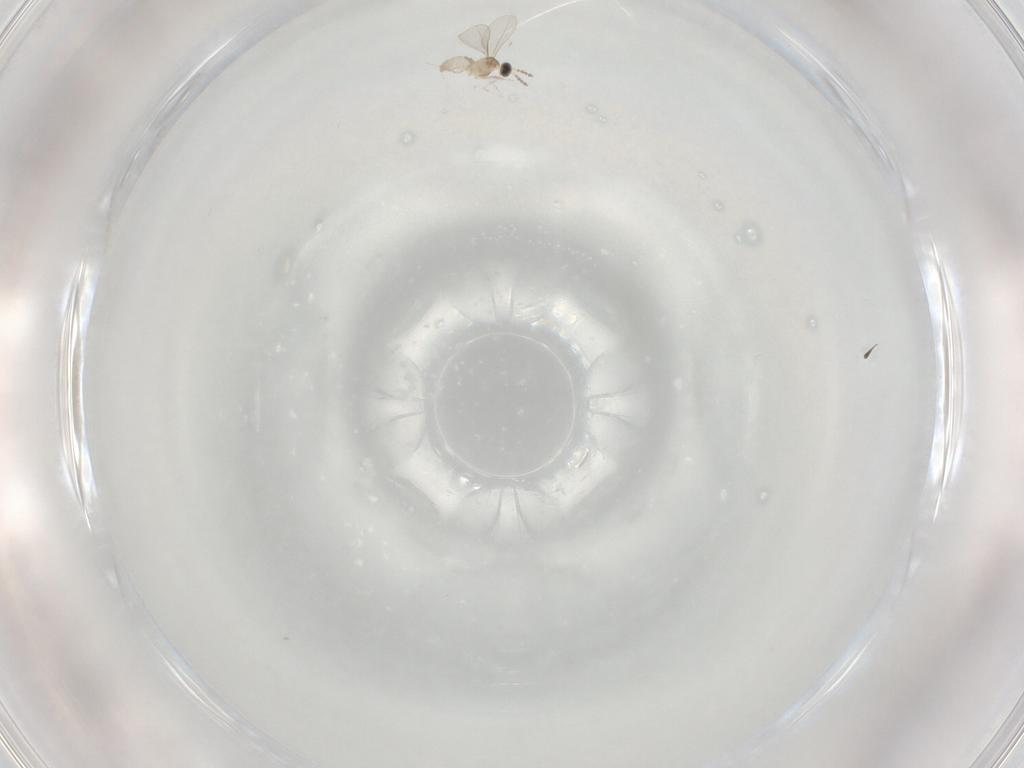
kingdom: Animalia
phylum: Arthropoda
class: Insecta
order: Diptera
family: Cecidomyiidae
